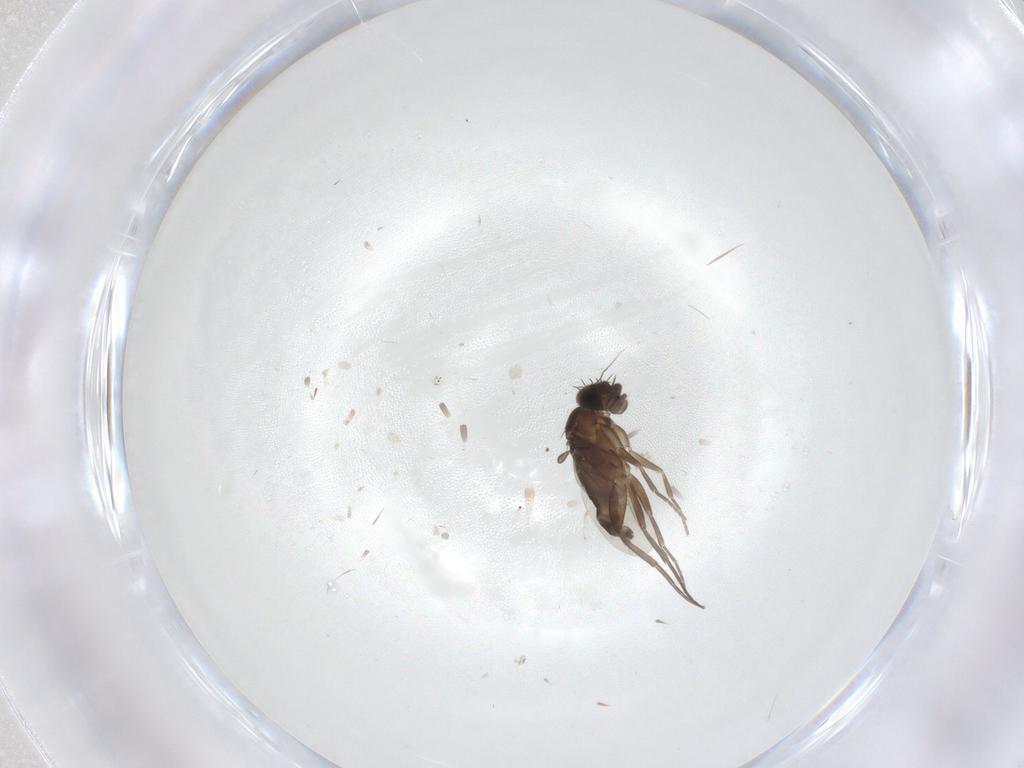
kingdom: Animalia
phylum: Arthropoda
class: Insecta
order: Diptera
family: Phoridae
